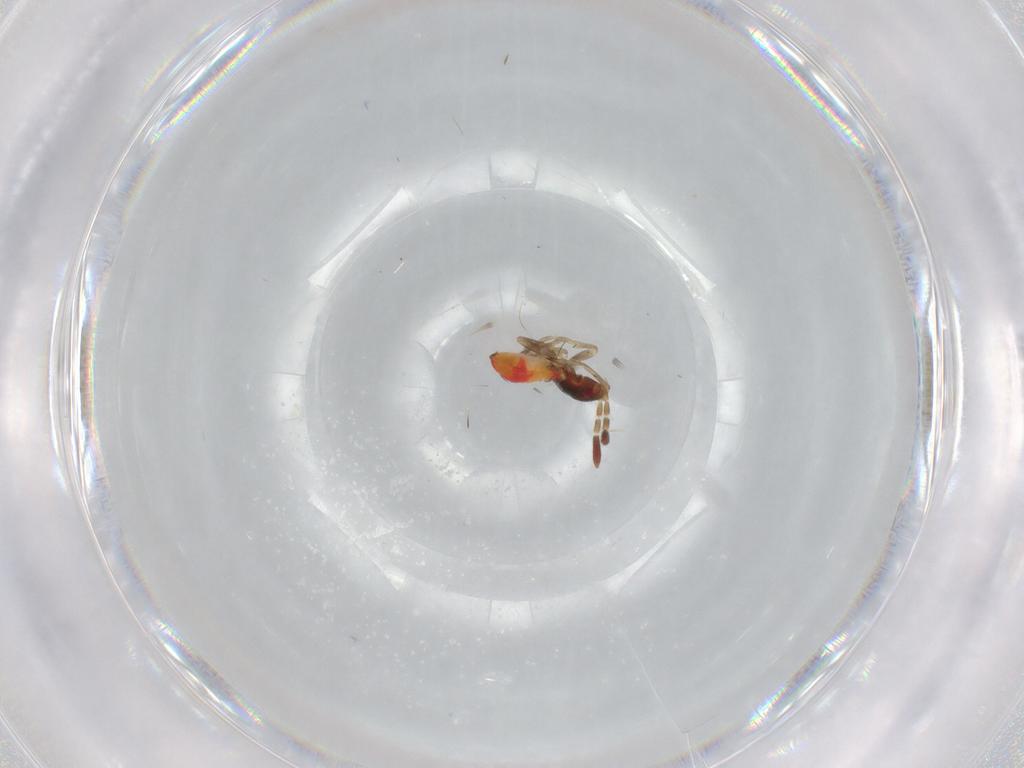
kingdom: Animalia
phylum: Arthropoda
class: Insecta
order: Hemiptera
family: Rhyparochromidae
